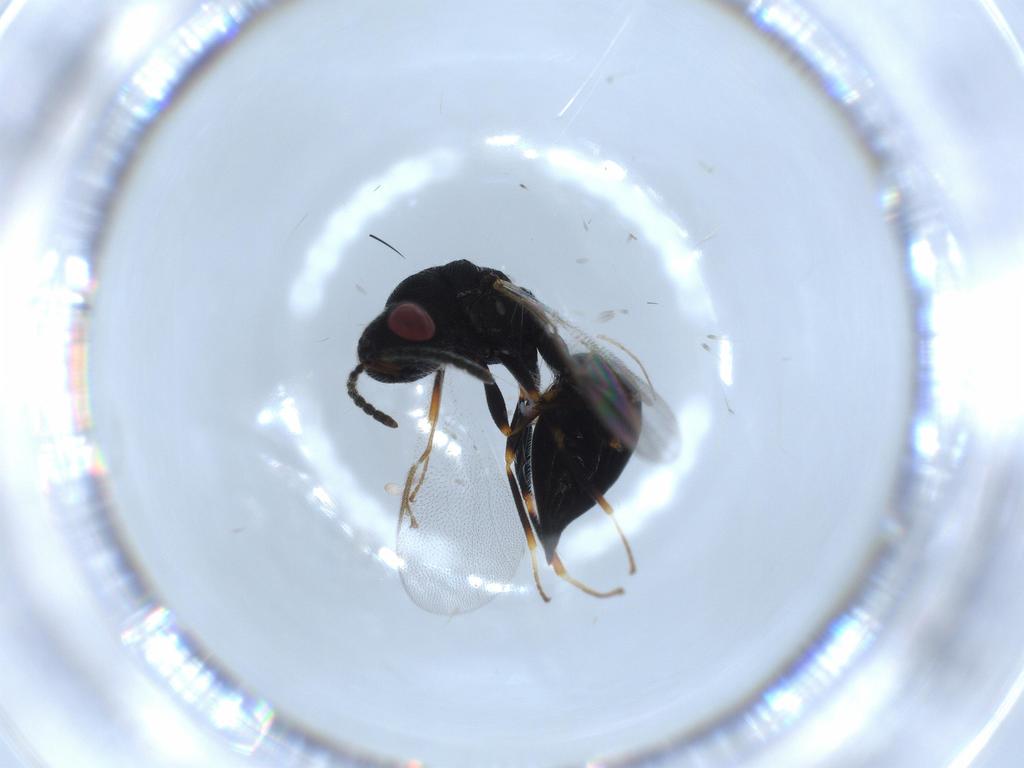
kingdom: Animalia
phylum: Arthropoda
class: Insecta
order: Hymenoptera
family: Eurytomidae
